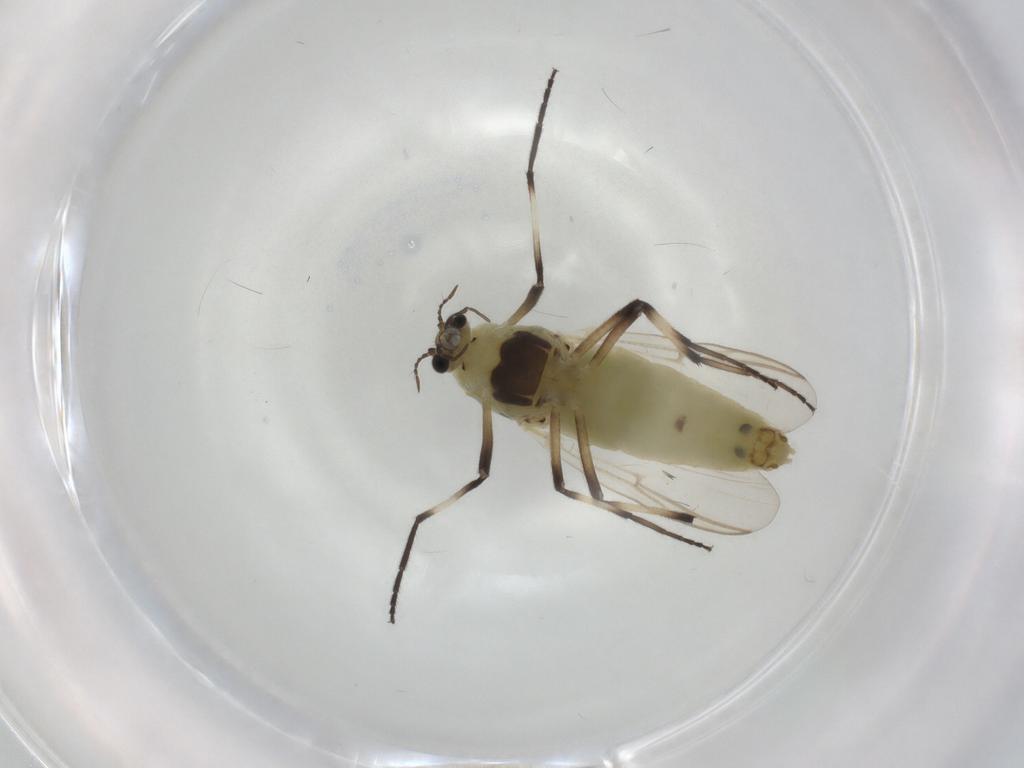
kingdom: Animalia
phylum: Arthropoda
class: Insecta
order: Diptera
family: Chironomidae
